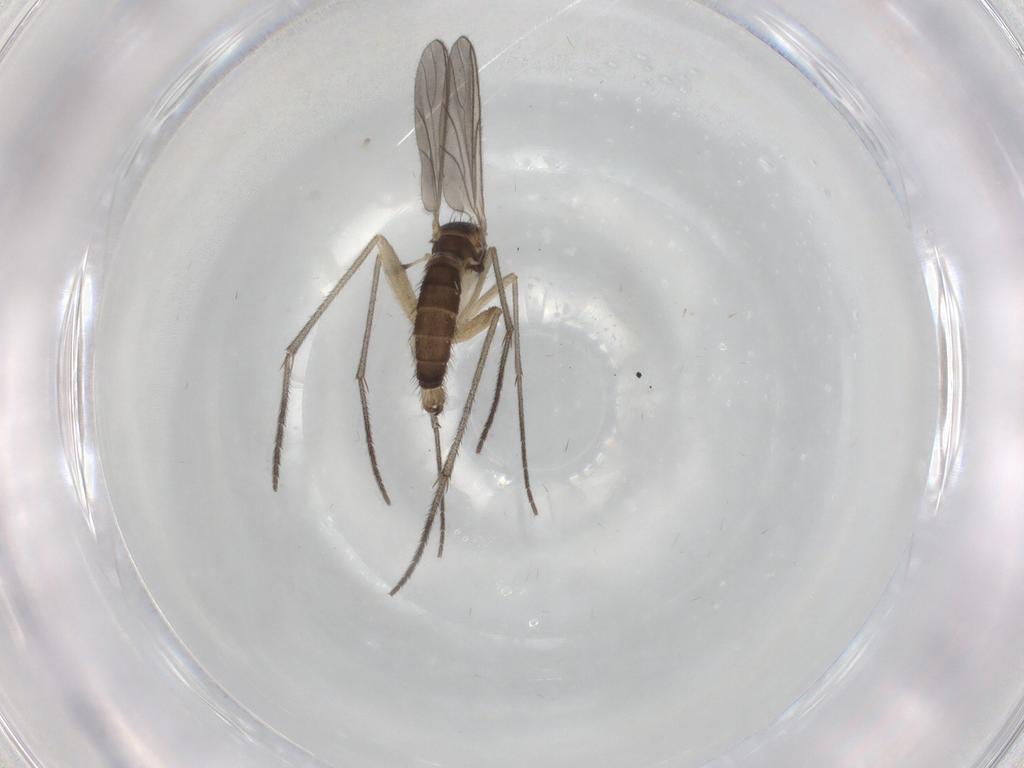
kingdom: Animalia
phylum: Arthropoda
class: Insecta
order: Diptera
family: Sciaridae
